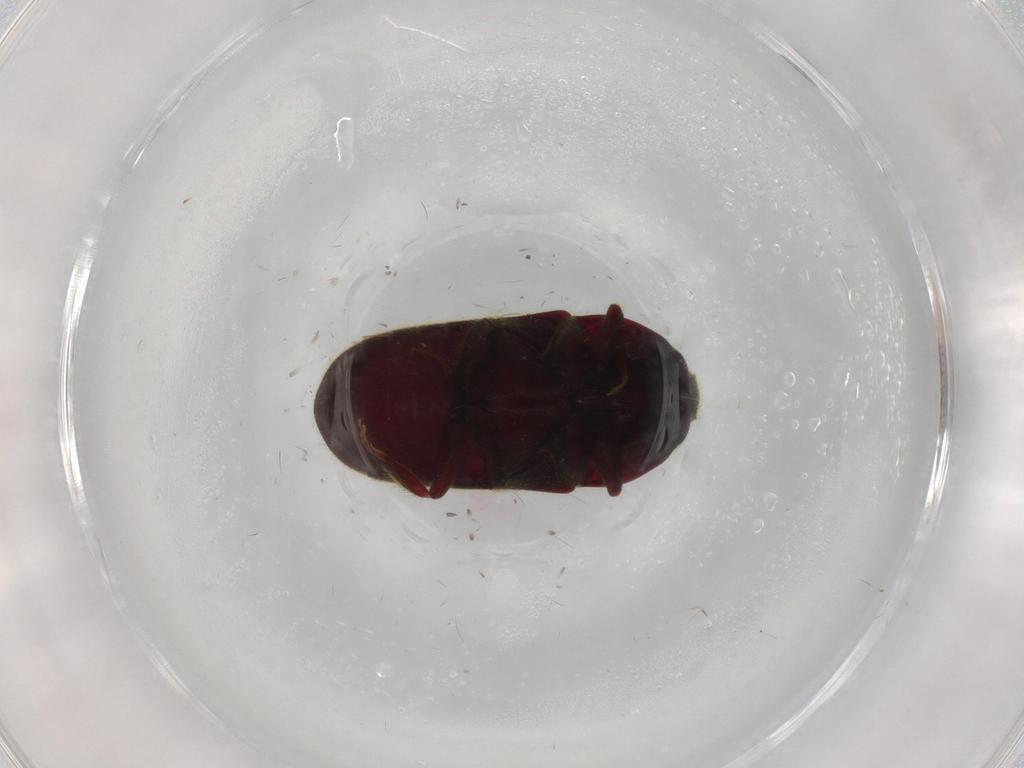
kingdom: Animalia
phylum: Arthropoda
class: Insecta
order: Coleoptera
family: Throscidae
